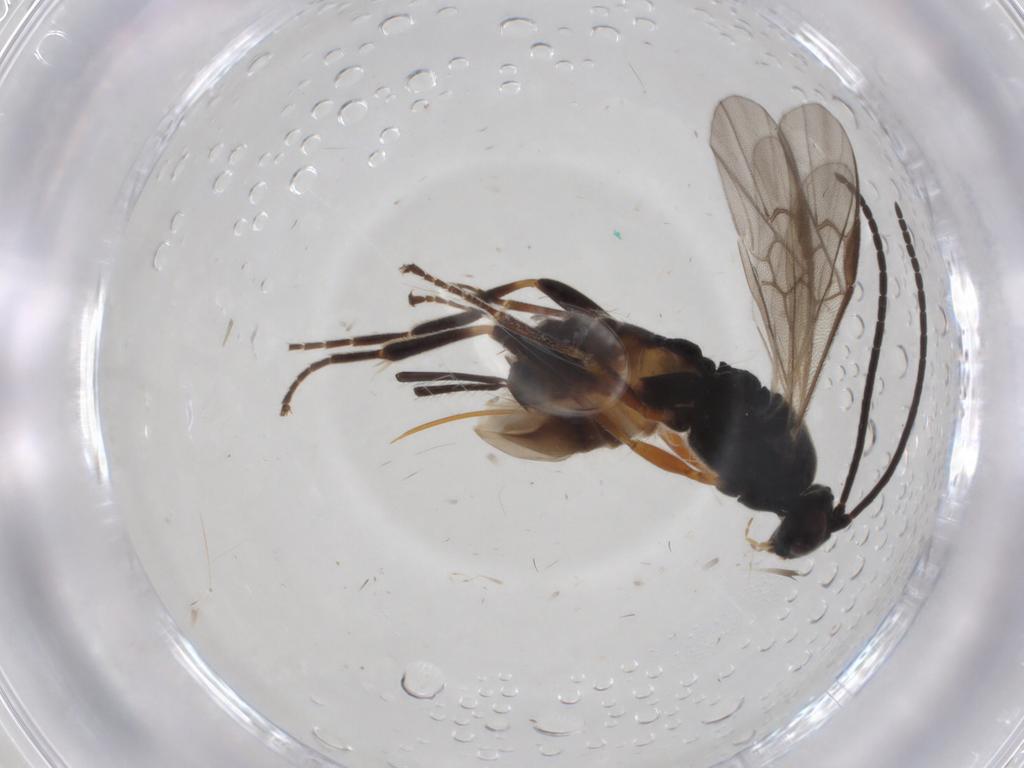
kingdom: Animalia
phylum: Arthropoda
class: Insecta
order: Hymenoptera
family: Braconidae
